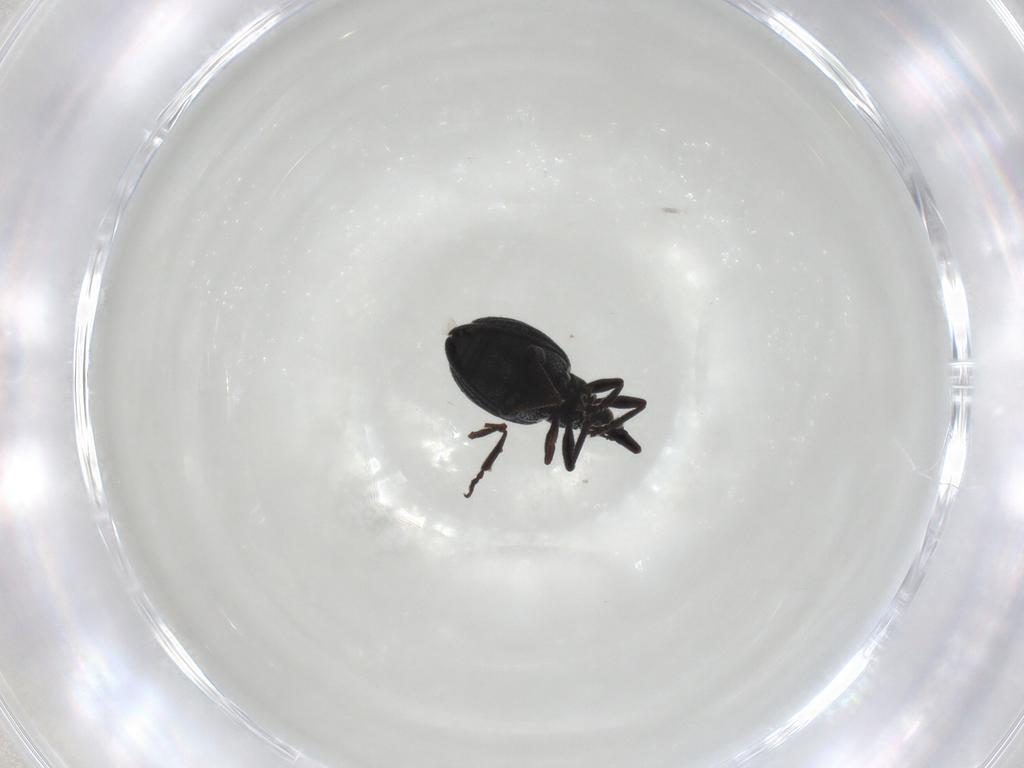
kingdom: Animalia
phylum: Arthropoda
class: Insecta
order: Coleoptera
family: Brentidae
